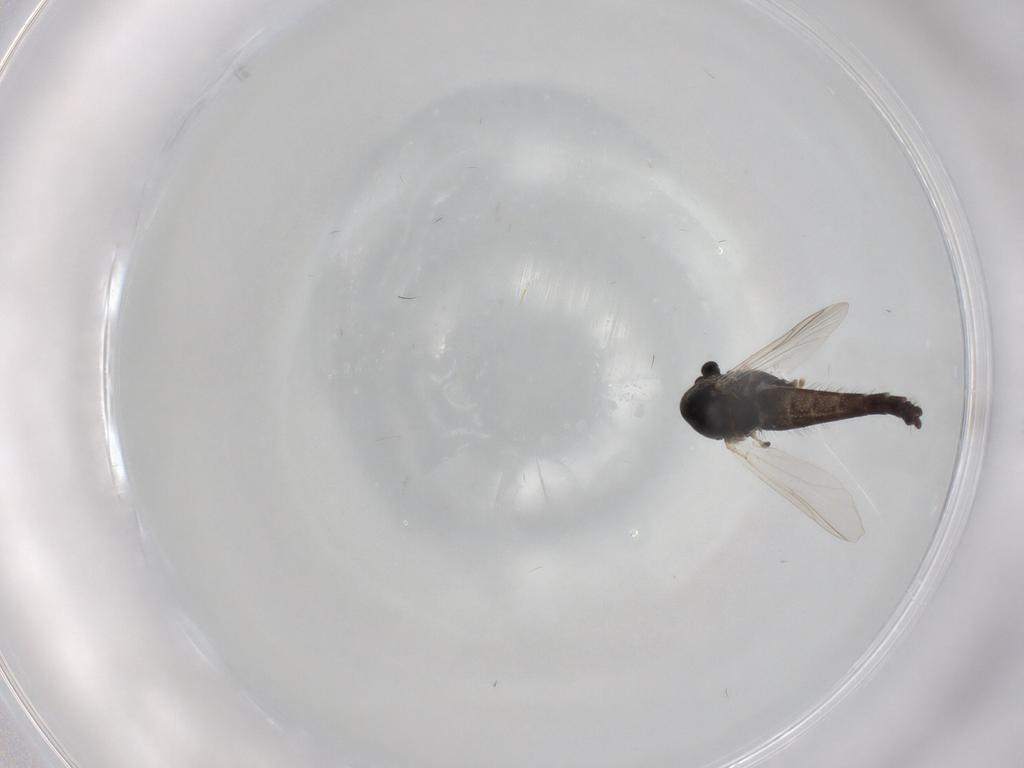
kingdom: Animalia
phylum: Arthropoda
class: Insecta
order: Diptera
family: Chironomidae
